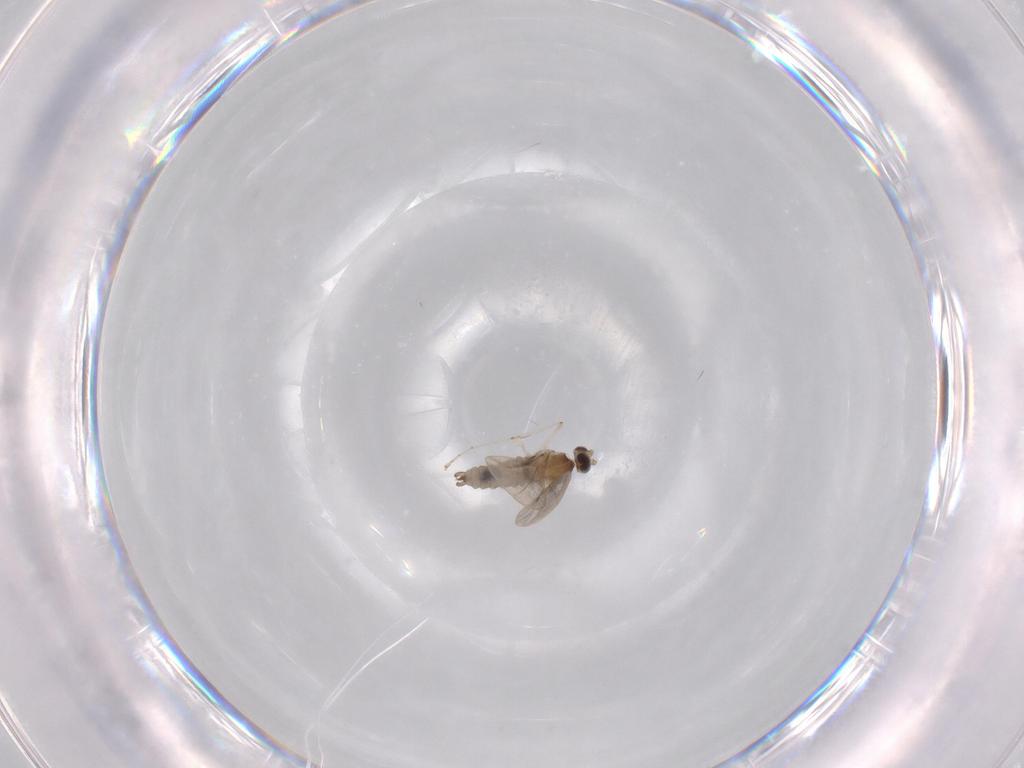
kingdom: Animalia
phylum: Arthropoda
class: Insecta
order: Diptera
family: Cecidomyiidae
